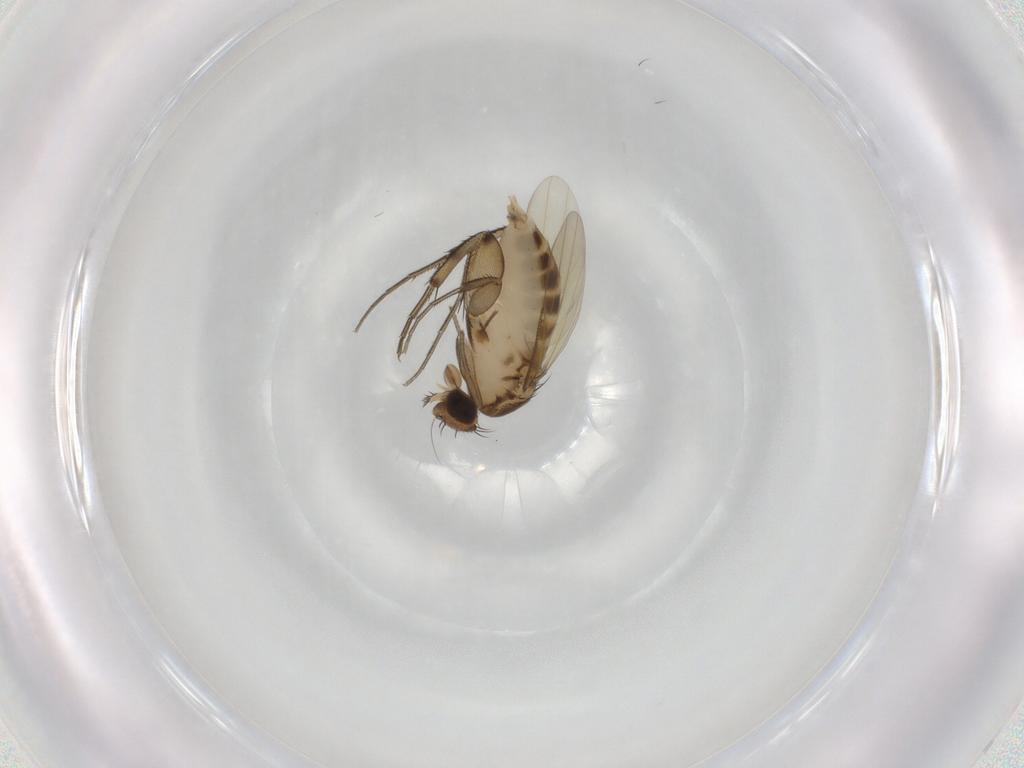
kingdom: Animalia
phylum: Arthropoda
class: Insecta
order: Diptera
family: Phoridae
